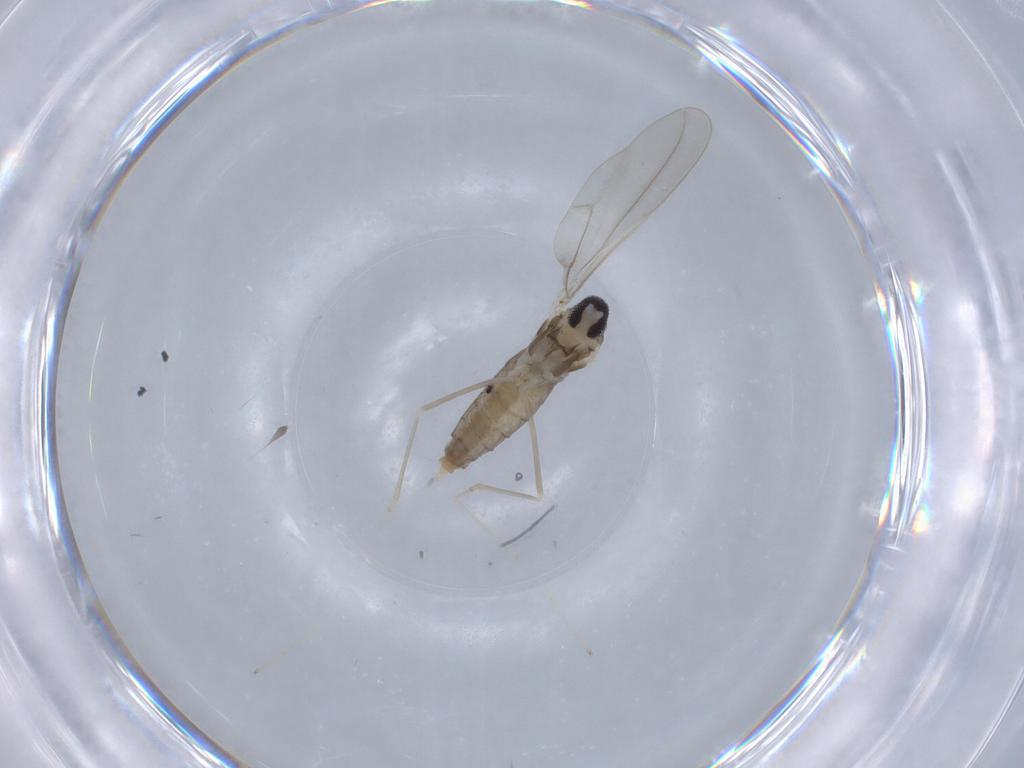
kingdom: Animalia
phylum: Arthropoda
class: Insecta
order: Diptera
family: Cecidomyiidae
